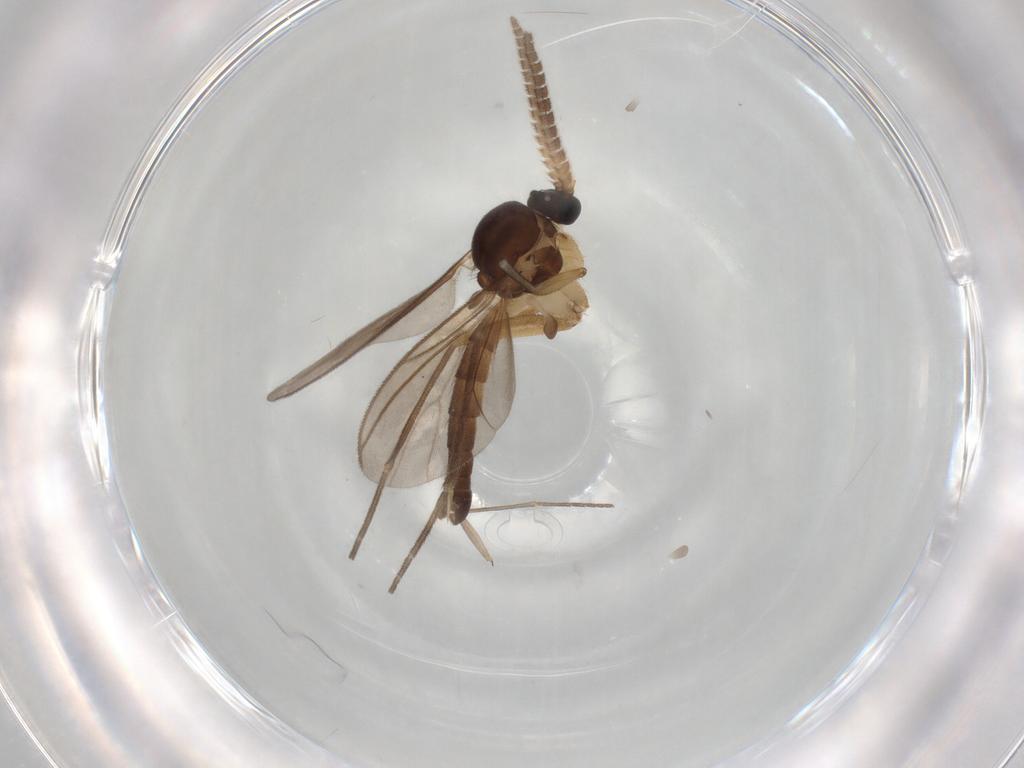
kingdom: Animalia
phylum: Arthropoda
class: Insecta
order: Diptera
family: Mycetophilidae
